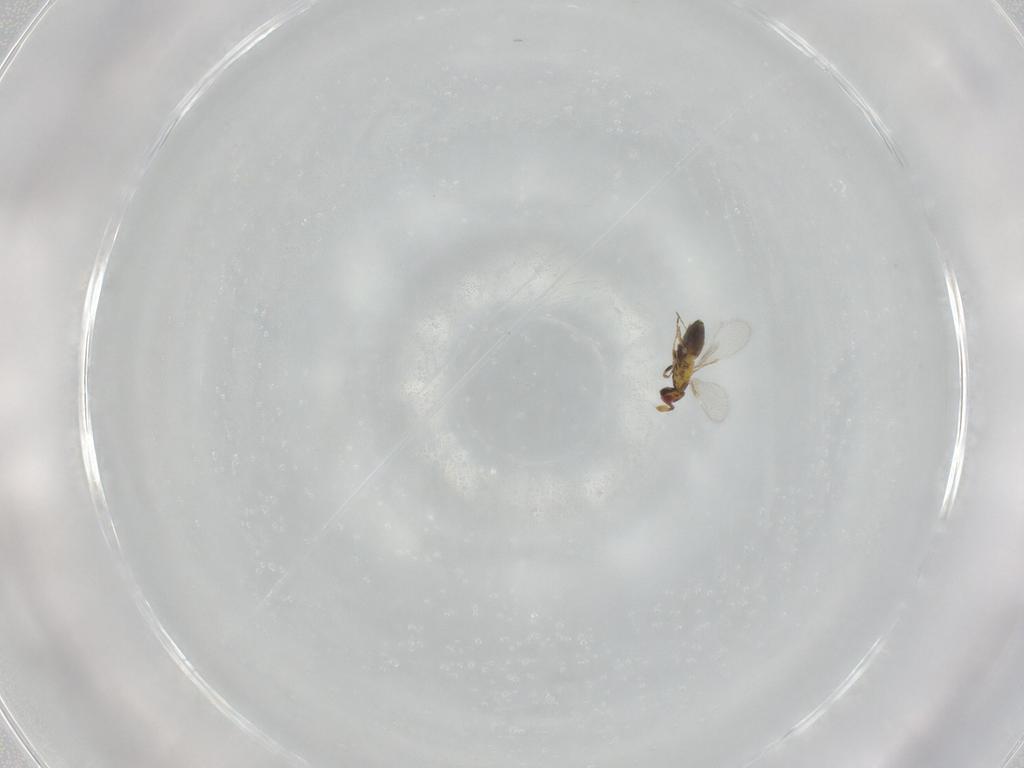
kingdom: Animalia
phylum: Arthropoda
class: Insecta
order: Hymenoptera
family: Trichogrammatidae
